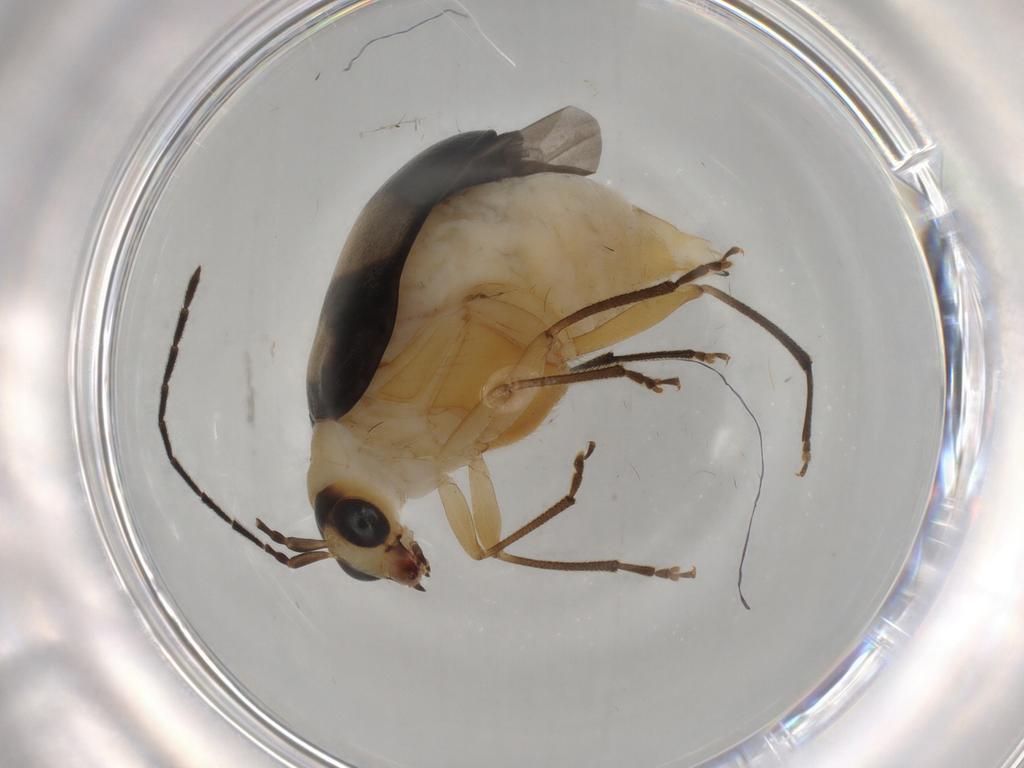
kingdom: Animalia
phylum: Arthropoda
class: Insecta
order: Coleoptera
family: Chrysomelidae
